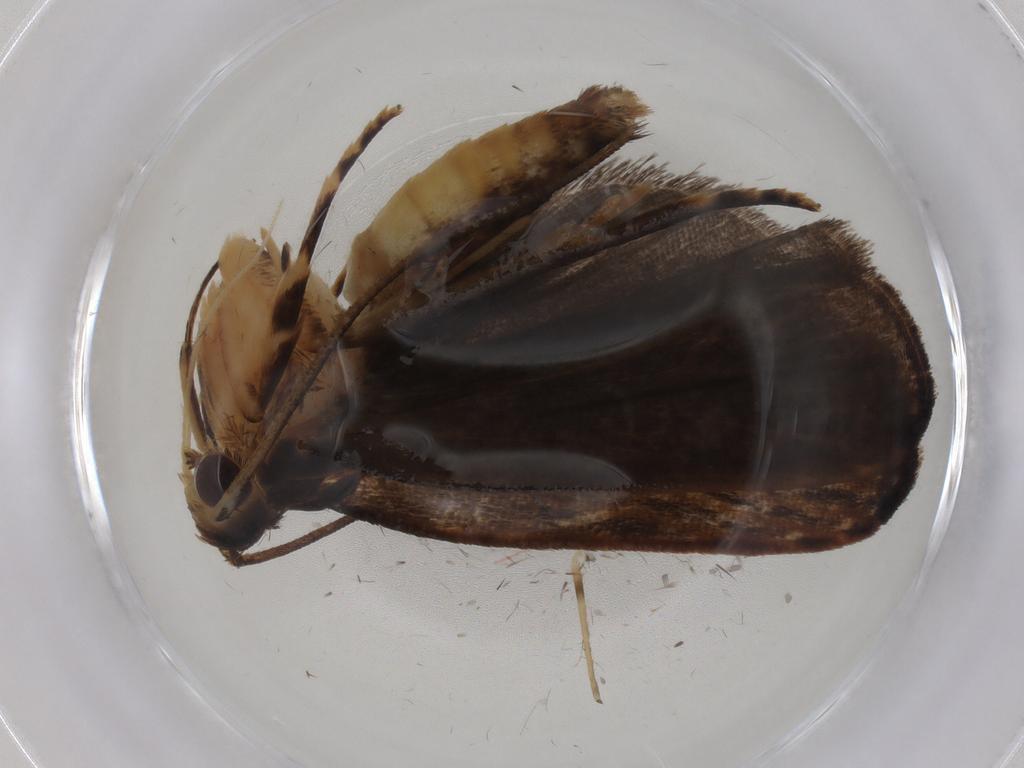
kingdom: Animalia
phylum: Arthropoda
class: Insecta
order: Lepidoptera
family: Gelechiidae
